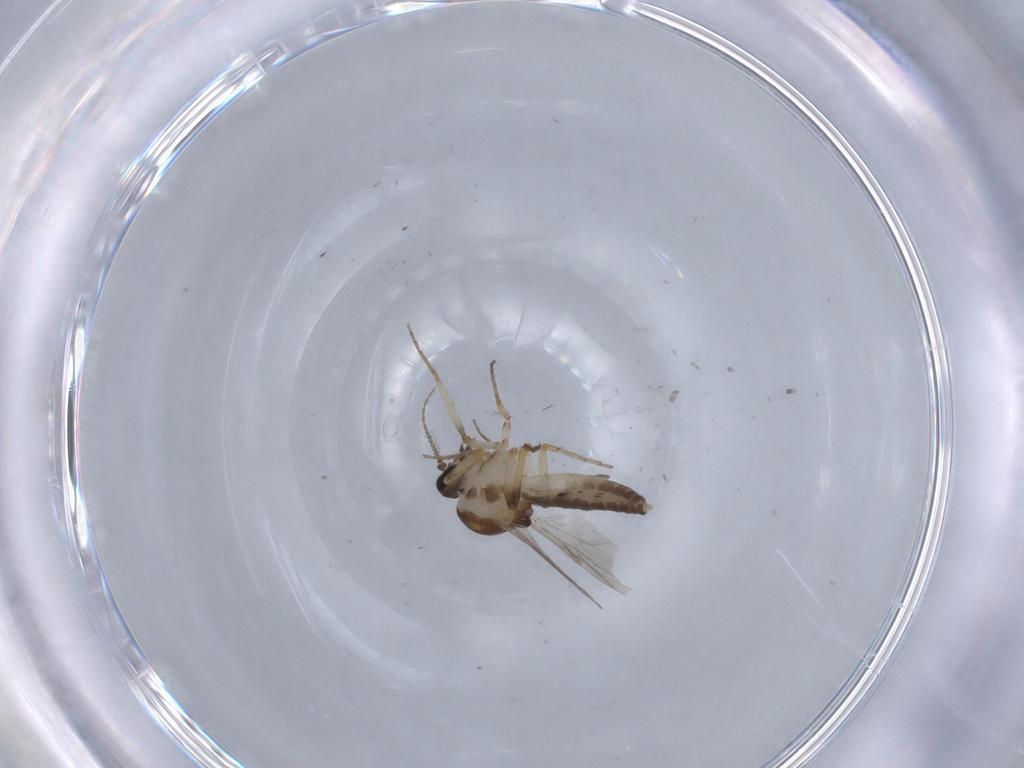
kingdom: Animalia
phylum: Arthropoda
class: Insecta
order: Diptera
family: Ceratopogonidae
